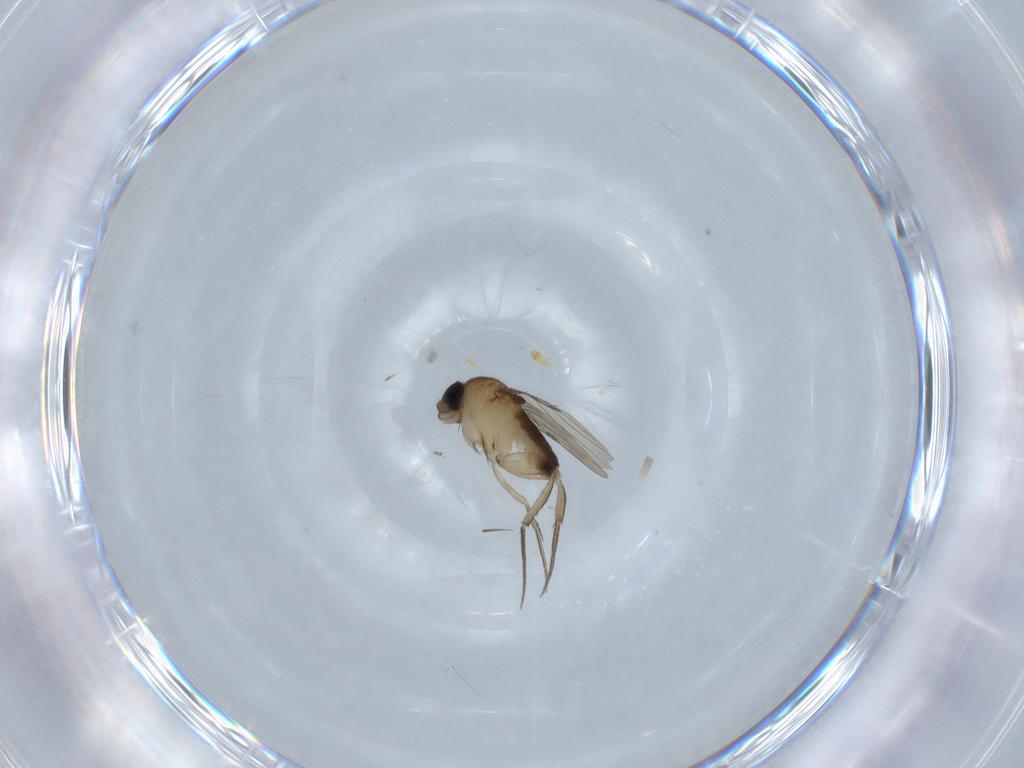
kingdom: Animalia
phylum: Arthropoda
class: Insecta
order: Diptera
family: Phoridae
